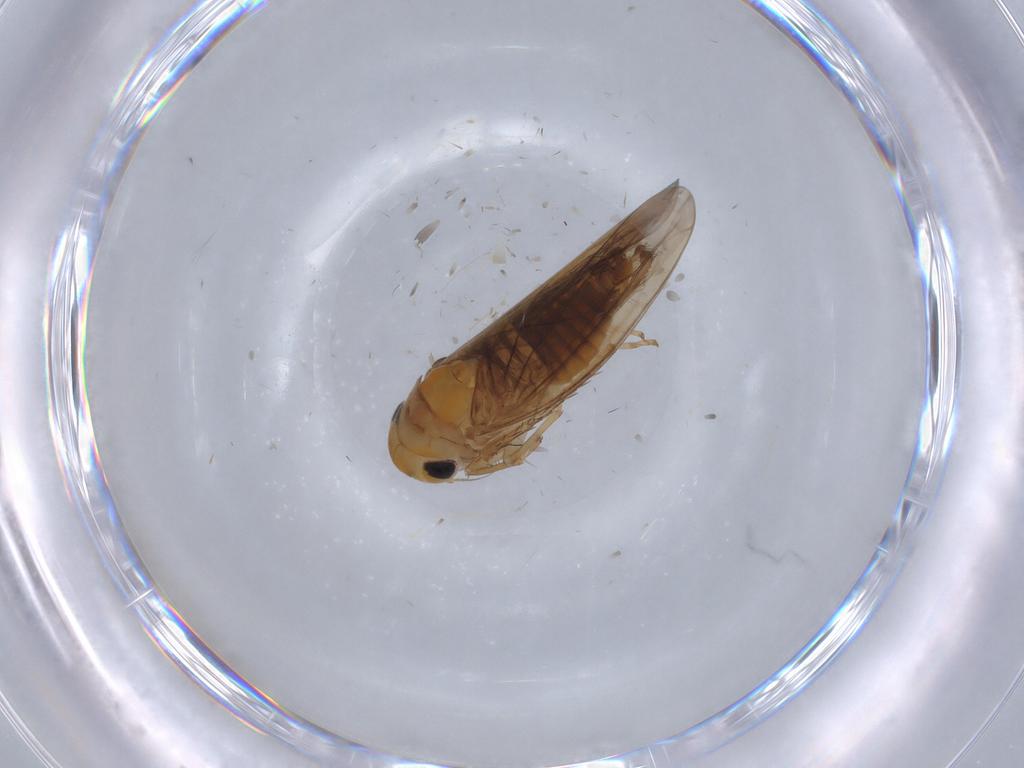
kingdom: Animalia
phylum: Arthropoda
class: Insecta
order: Hemiptera
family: Cicadellidae
